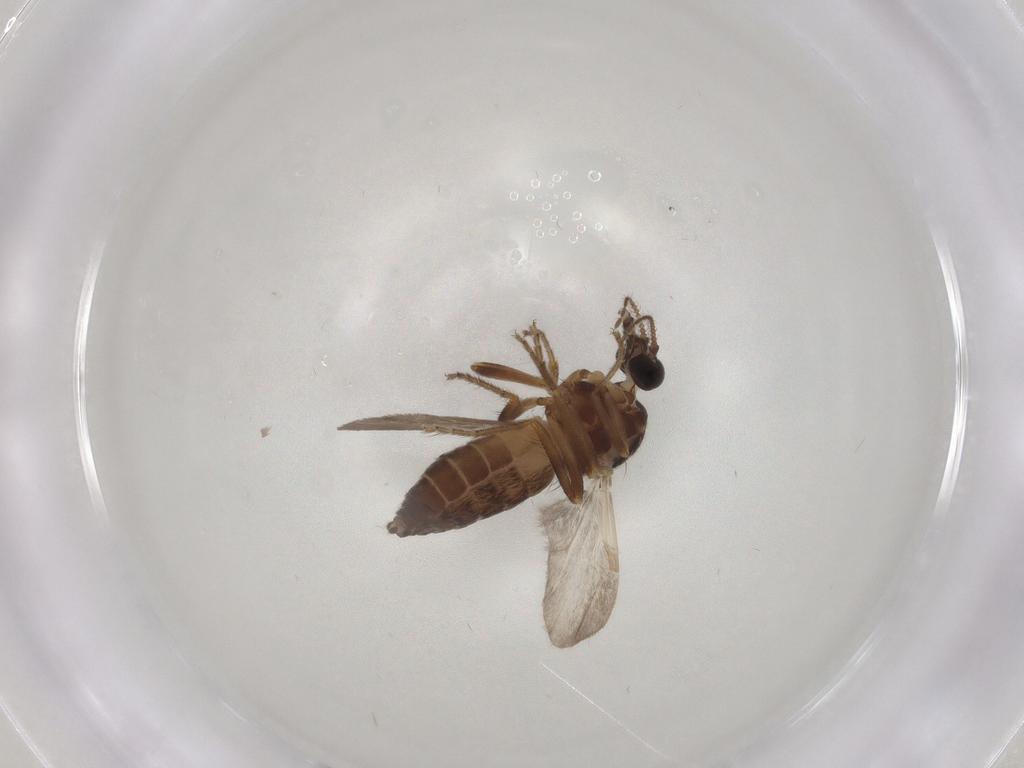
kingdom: Animalia
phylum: Arthropoda
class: Insecta
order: Diptera
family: Ceratopogonidae
